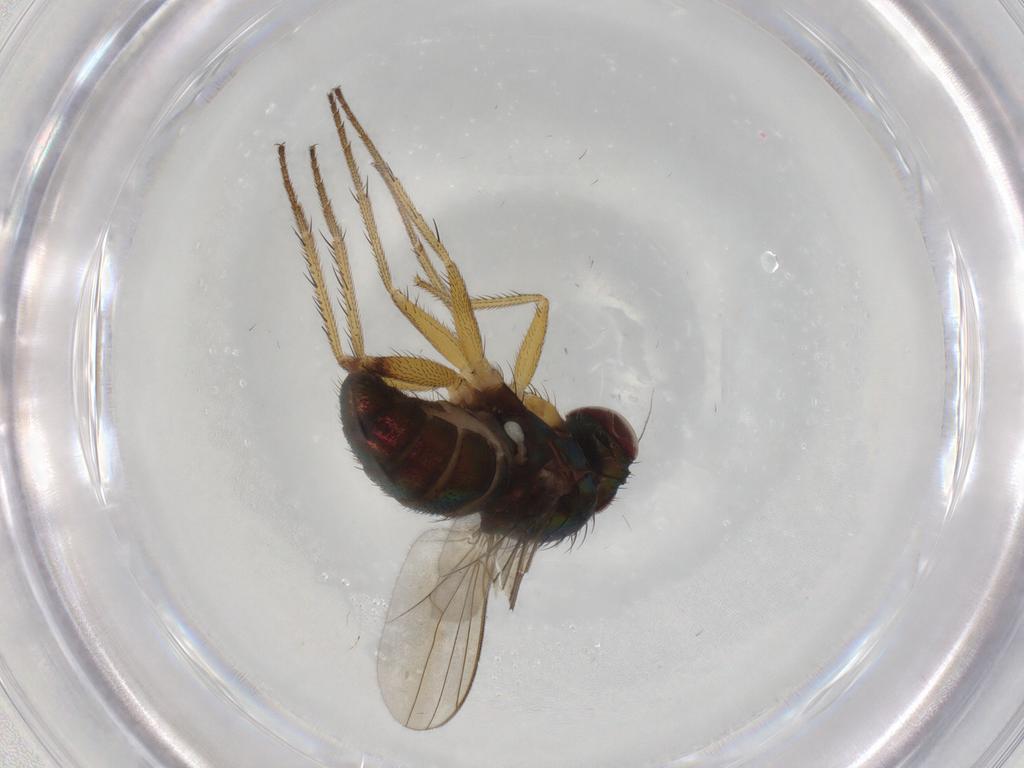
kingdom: Animalia
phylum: Arthropoda
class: Insecta
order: Diptera
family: Dolichopodidae
